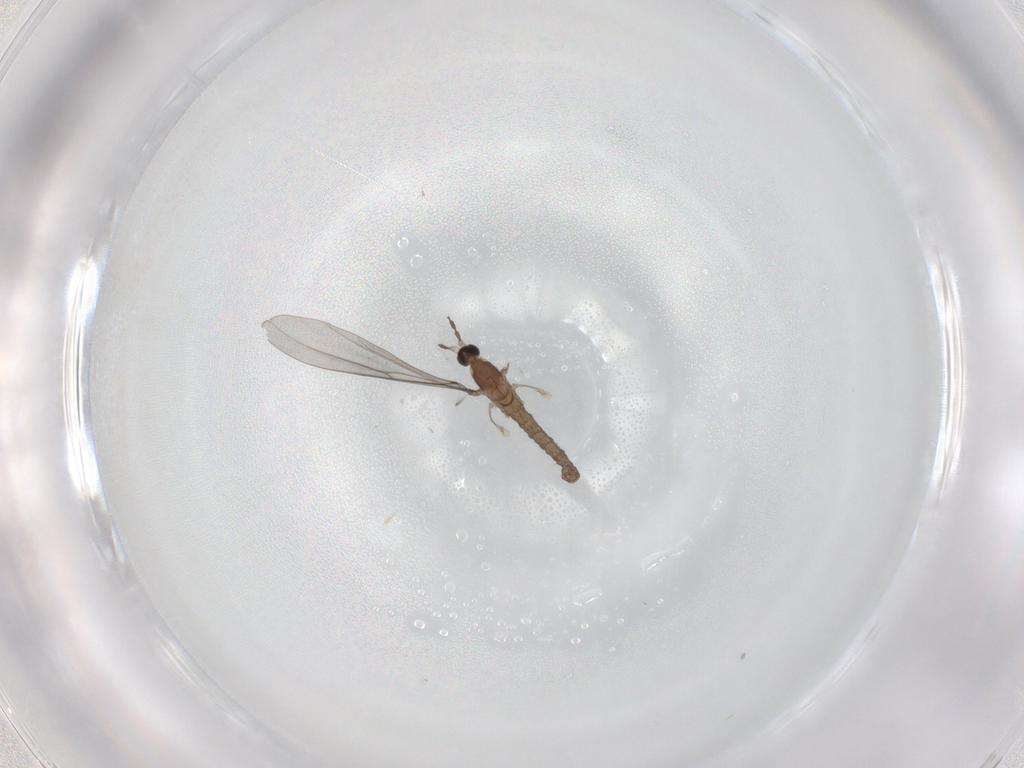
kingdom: Animalia
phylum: Arthropoda
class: Insecta
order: Diptera
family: Cecidomyiidae
